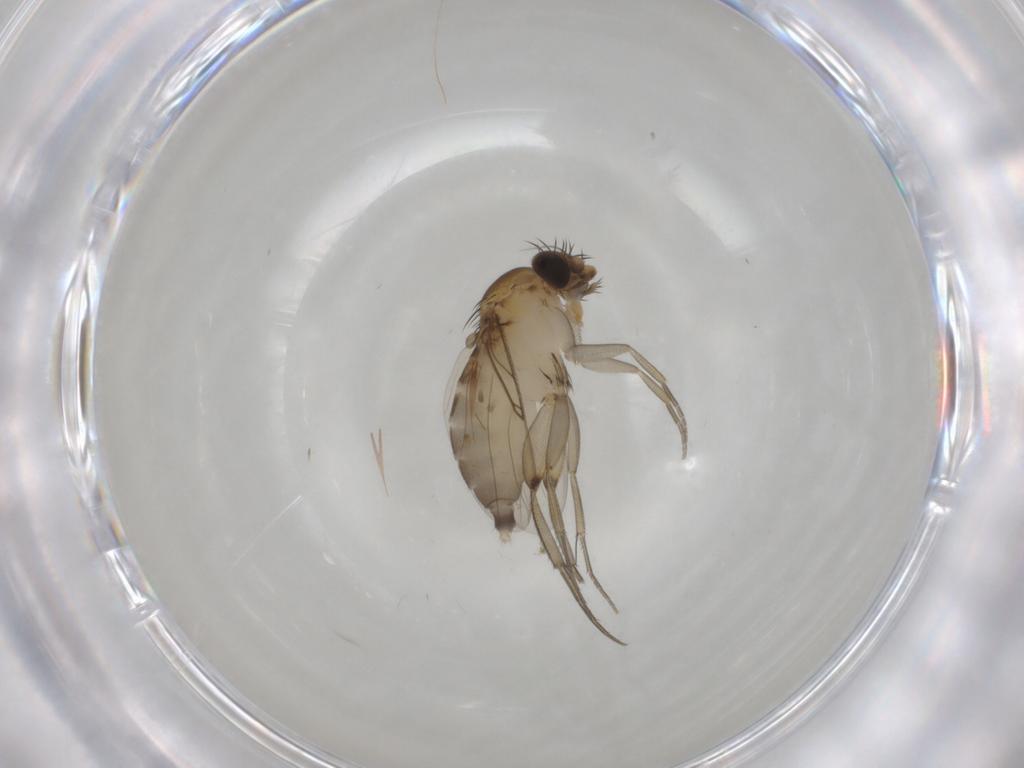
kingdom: Animalia
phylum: Arthropoda
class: Insecta
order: Diptera
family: Phoridae
